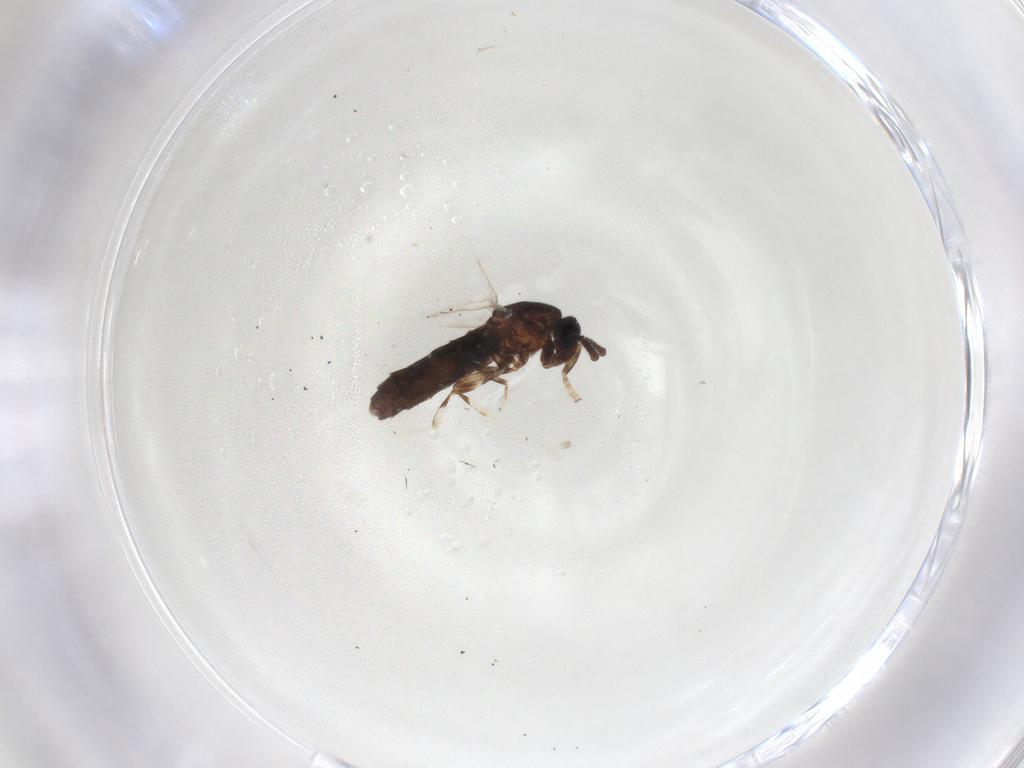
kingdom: Animalia
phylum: Arthropoda
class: Insecta
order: Diptera
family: Scatopsidae
